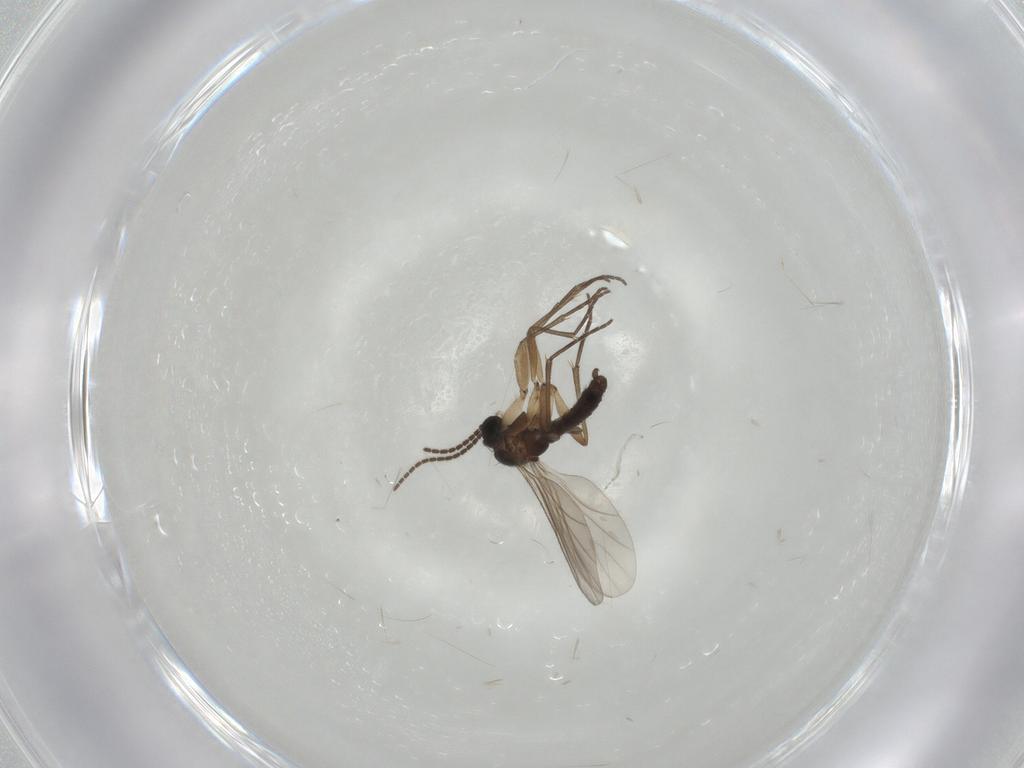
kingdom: Animalia
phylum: Arthropoda
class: Insecta
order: Diptera
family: Sciaridae
